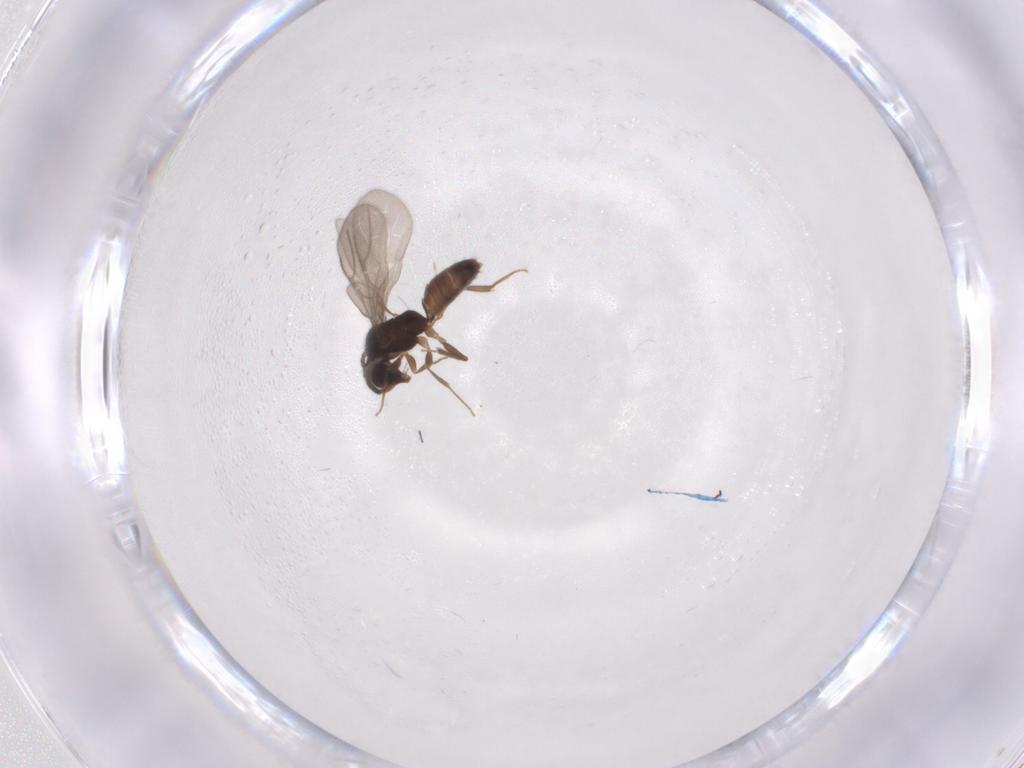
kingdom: Animalia
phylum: Arthropoda
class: Insecta
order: Hymenoptera
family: Bethylidae
